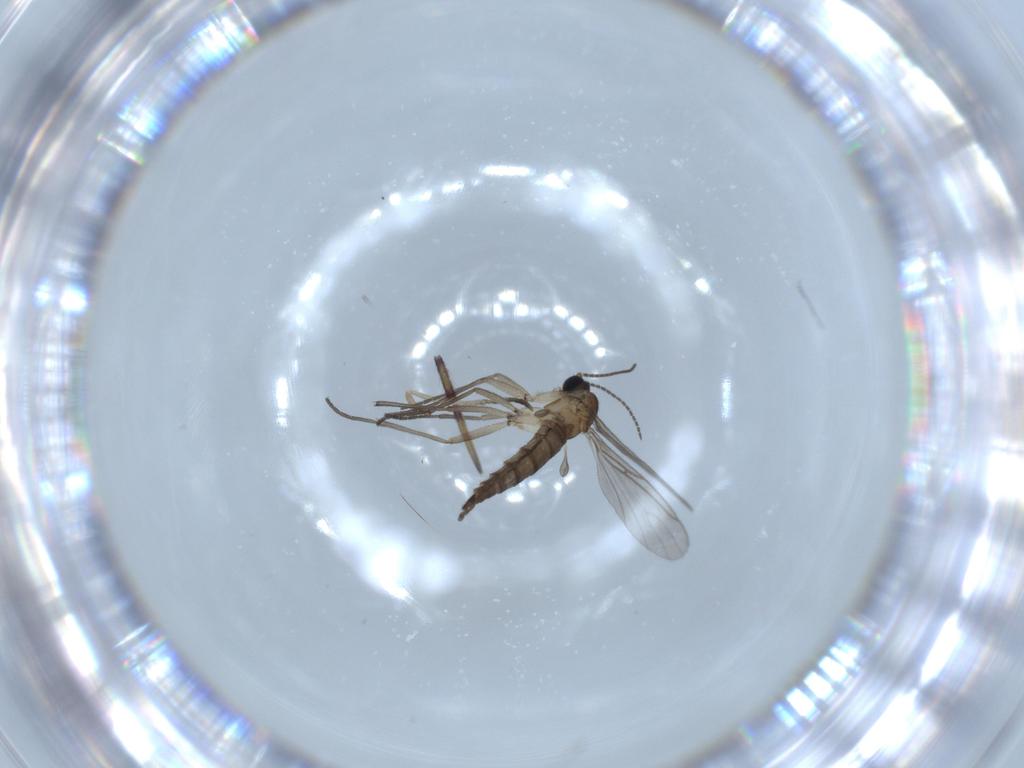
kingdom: Animalia
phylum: Arthropoda
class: Insecta
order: Diptera
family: Sciaridae
